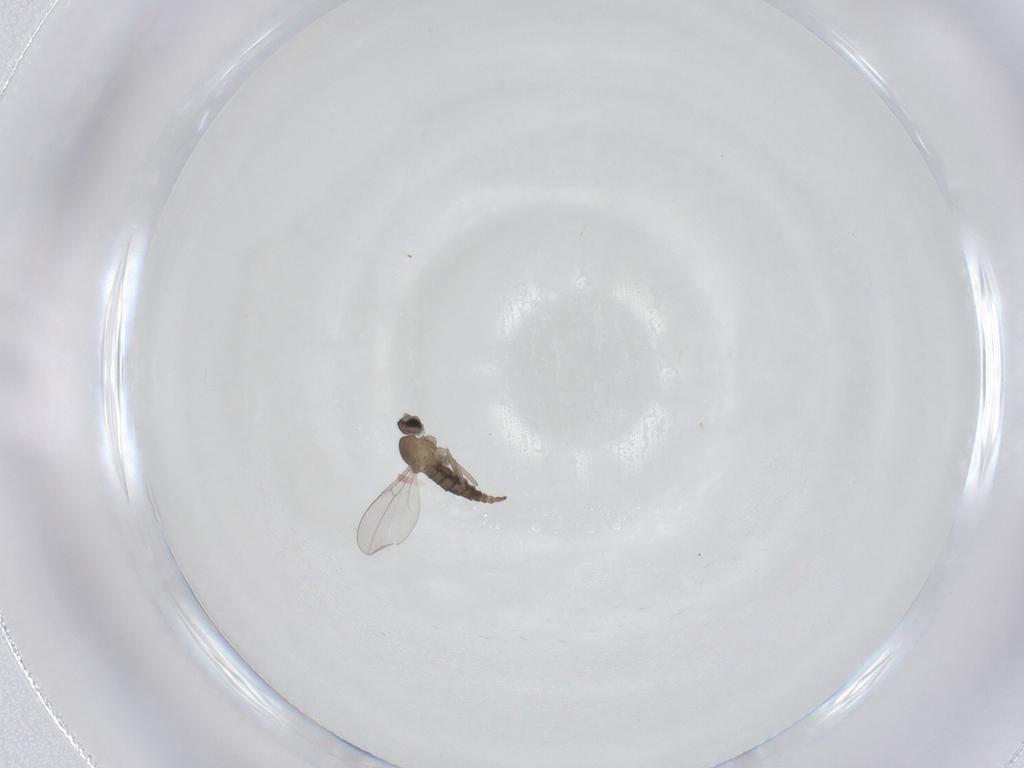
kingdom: Animalia
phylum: Arthropoda
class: Insecta
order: Diptera
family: Cecidomyiidae
